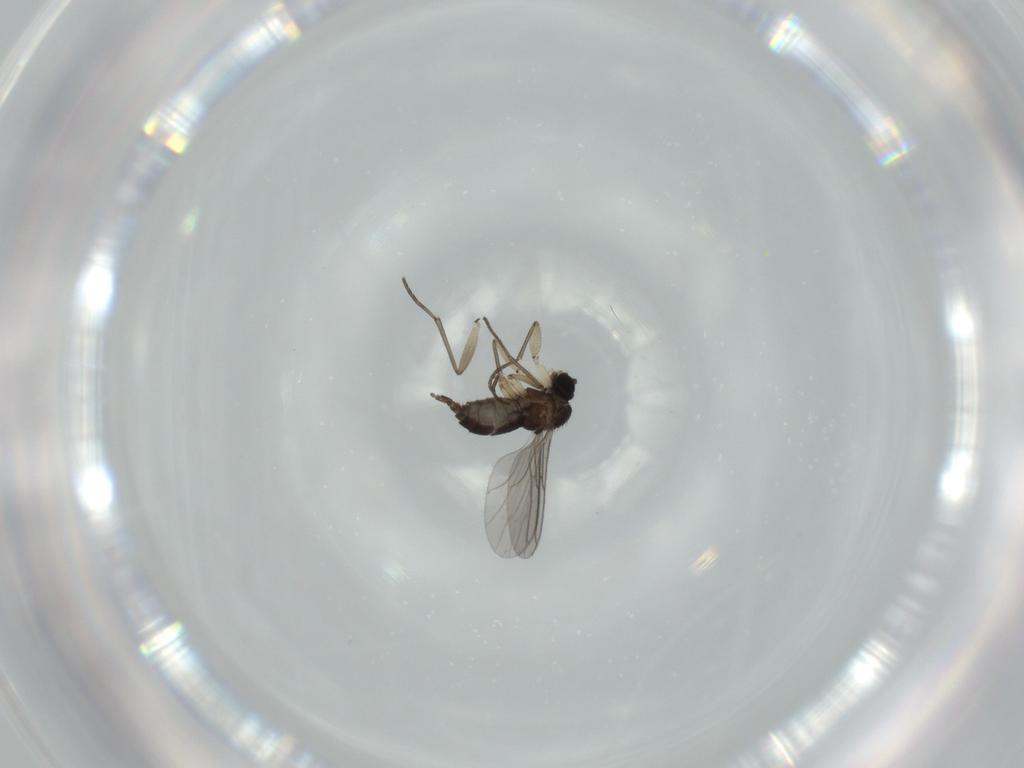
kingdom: Animalia
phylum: Arthropoda
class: Insecta
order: Diptera
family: Sciaridae
